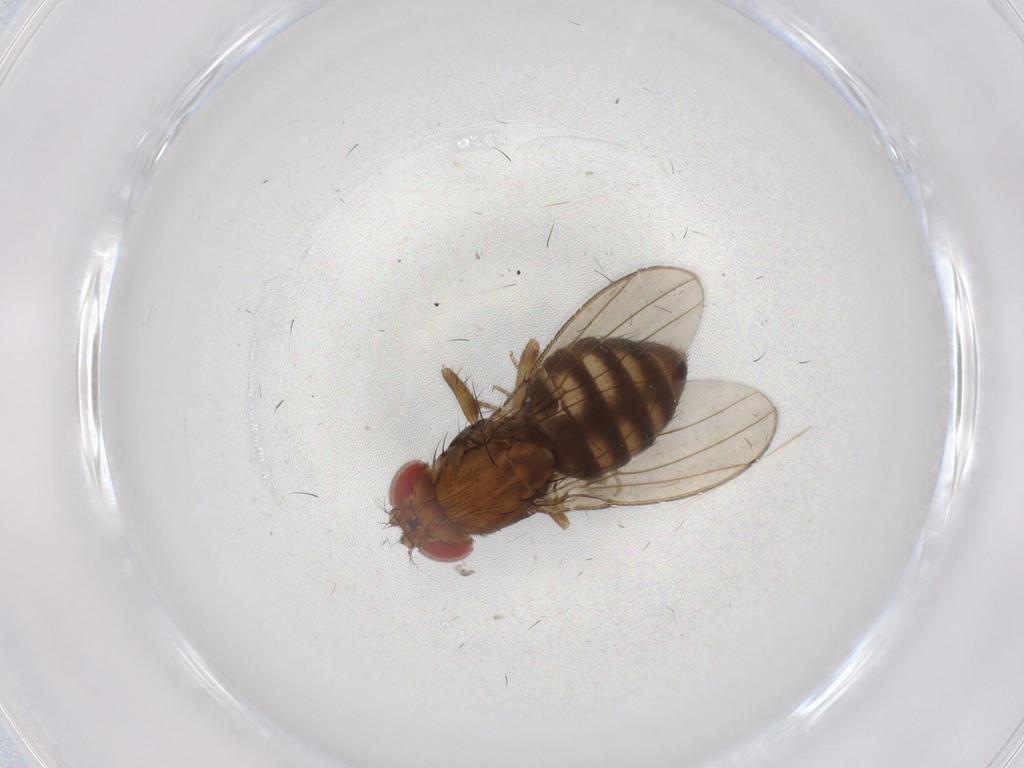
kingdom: Animalia
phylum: Arthropoda
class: Insecta
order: Diptera
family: Drosophilidae
